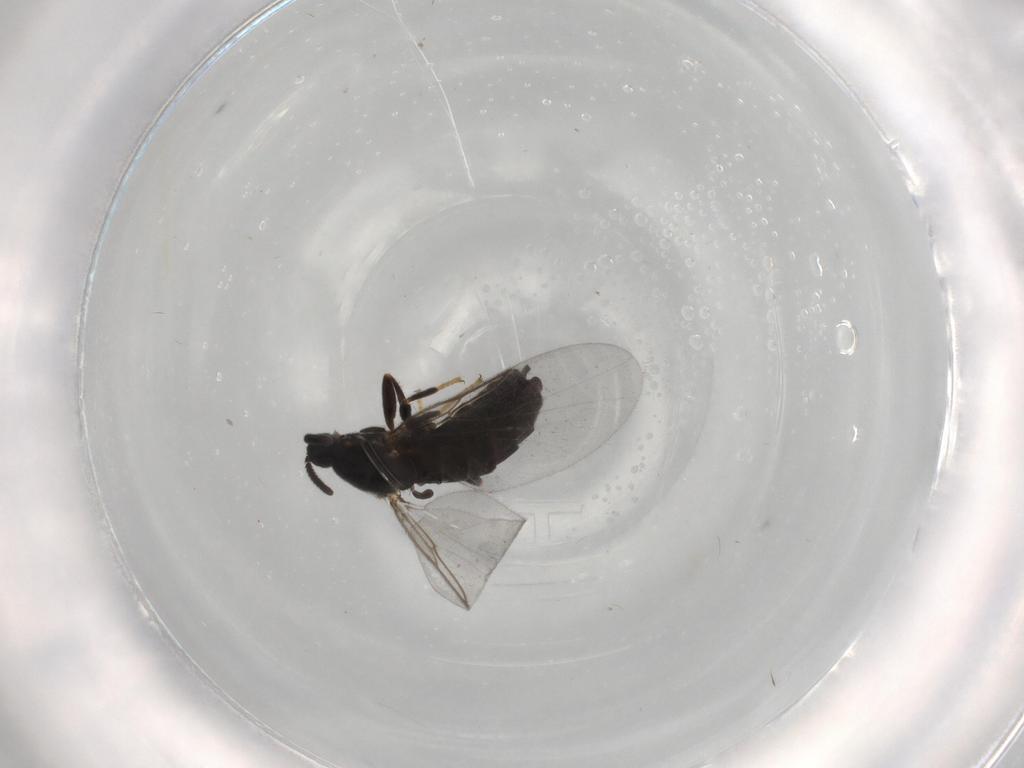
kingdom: Animalia
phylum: Arthropoda
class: Insecta
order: Diptera
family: Scatopsidae
